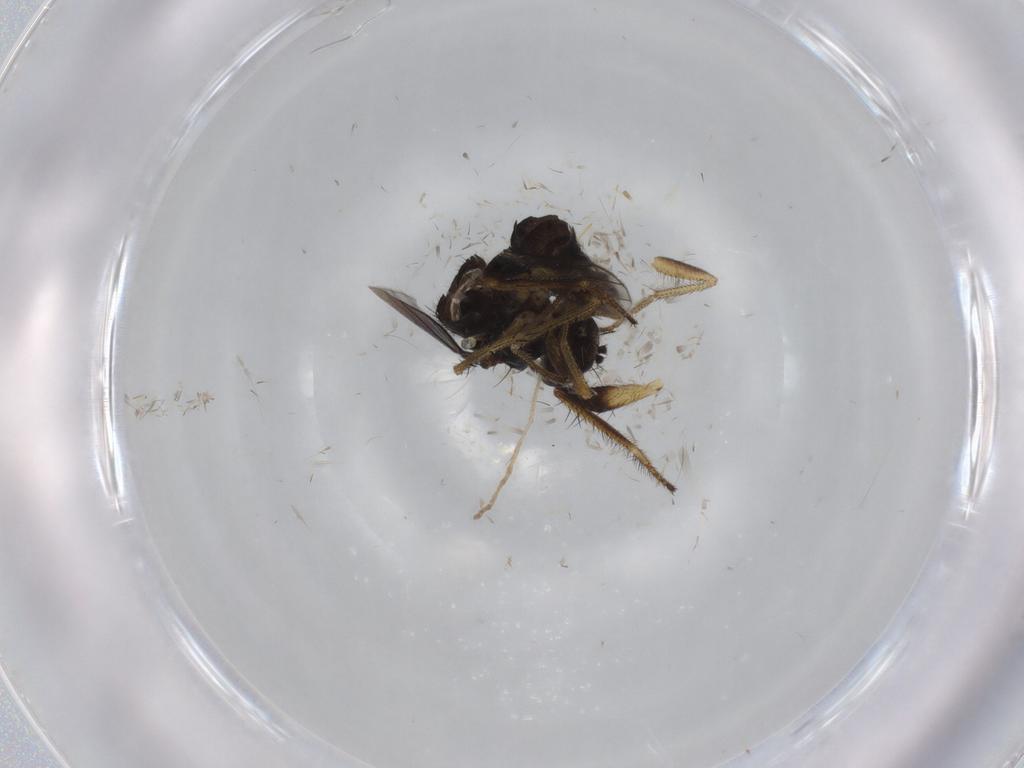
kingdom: Animalia
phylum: Arthropoda
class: Insecta
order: Diptera
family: Dolichopodidae
